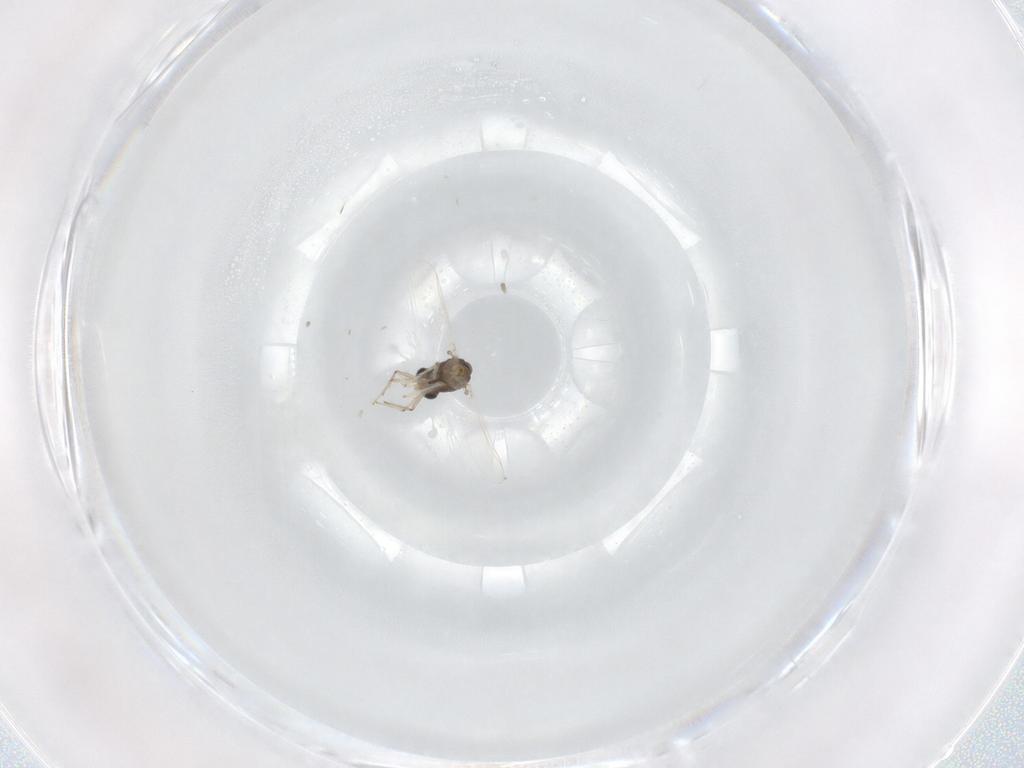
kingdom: Animalia
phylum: Arthropoda
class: Insecta
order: Diptera
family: Chironomidae
